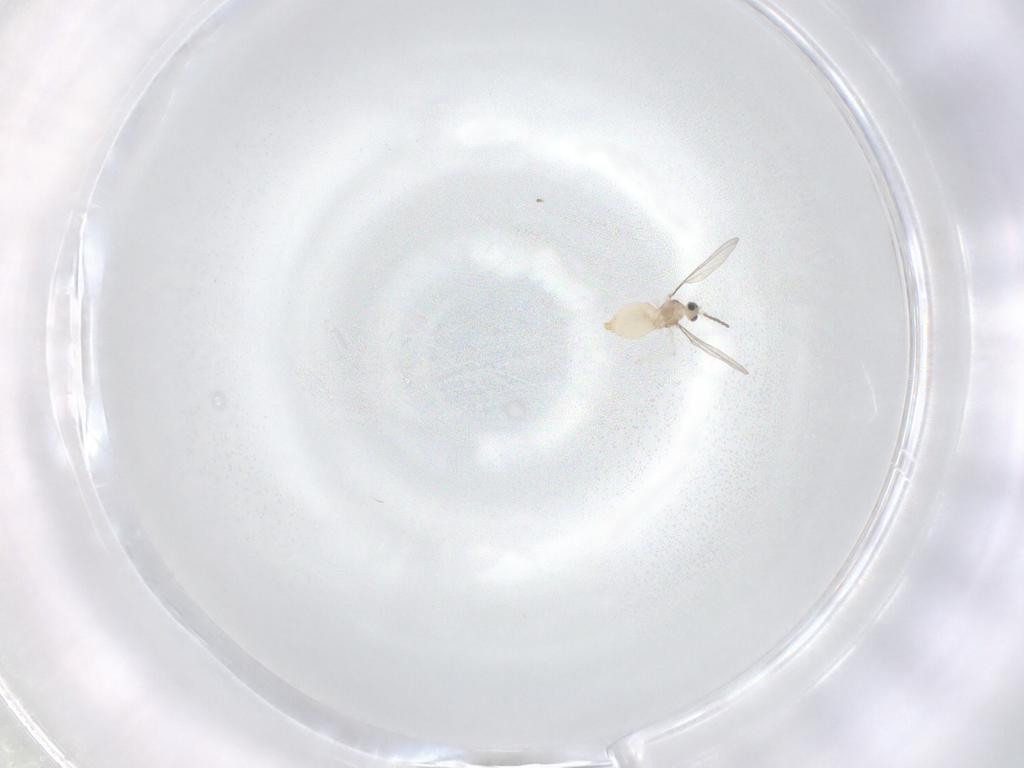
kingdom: Animalia
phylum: Arthropoda
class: Insecta
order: Diptera
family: Cecidomyiidae
